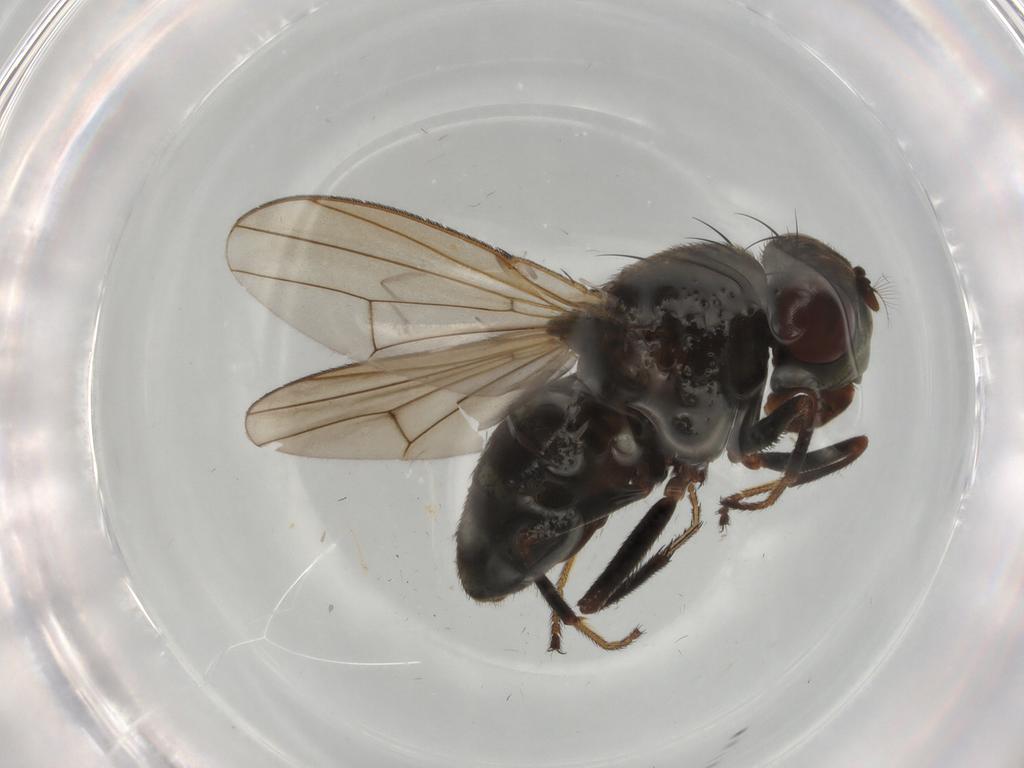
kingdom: Animalia
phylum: Arthropoda
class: Insecta
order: Diptera
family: Ephydridae
